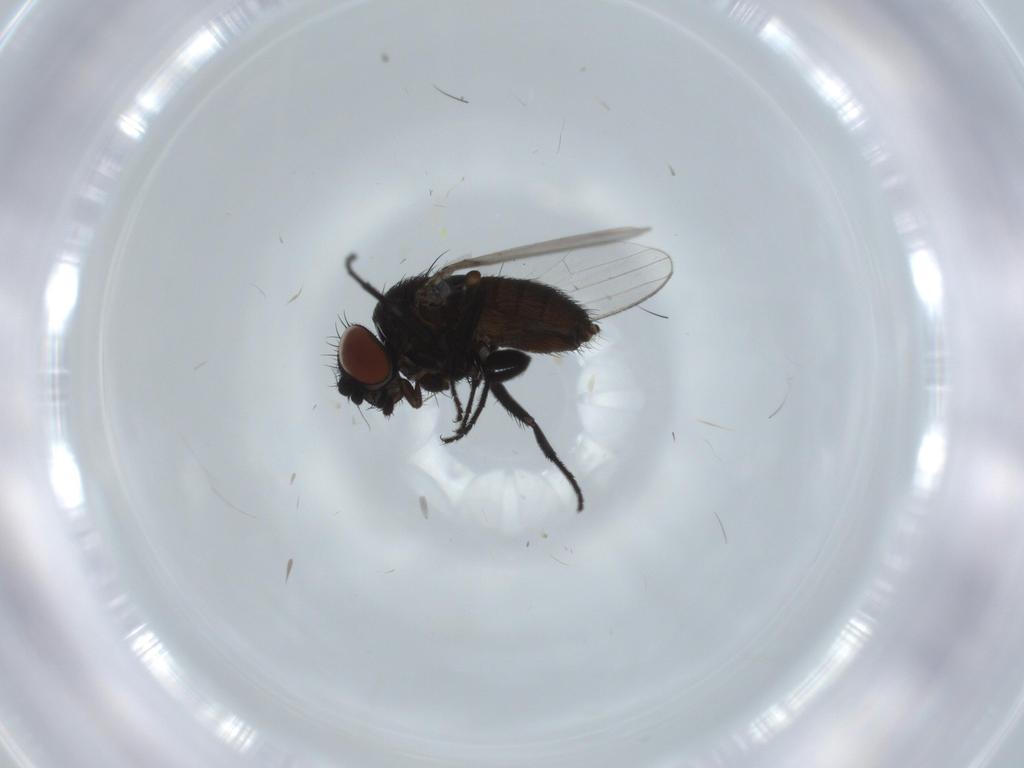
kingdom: Animalia
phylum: Arthropoda
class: Insecta
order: Diptera
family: Milichiidae
